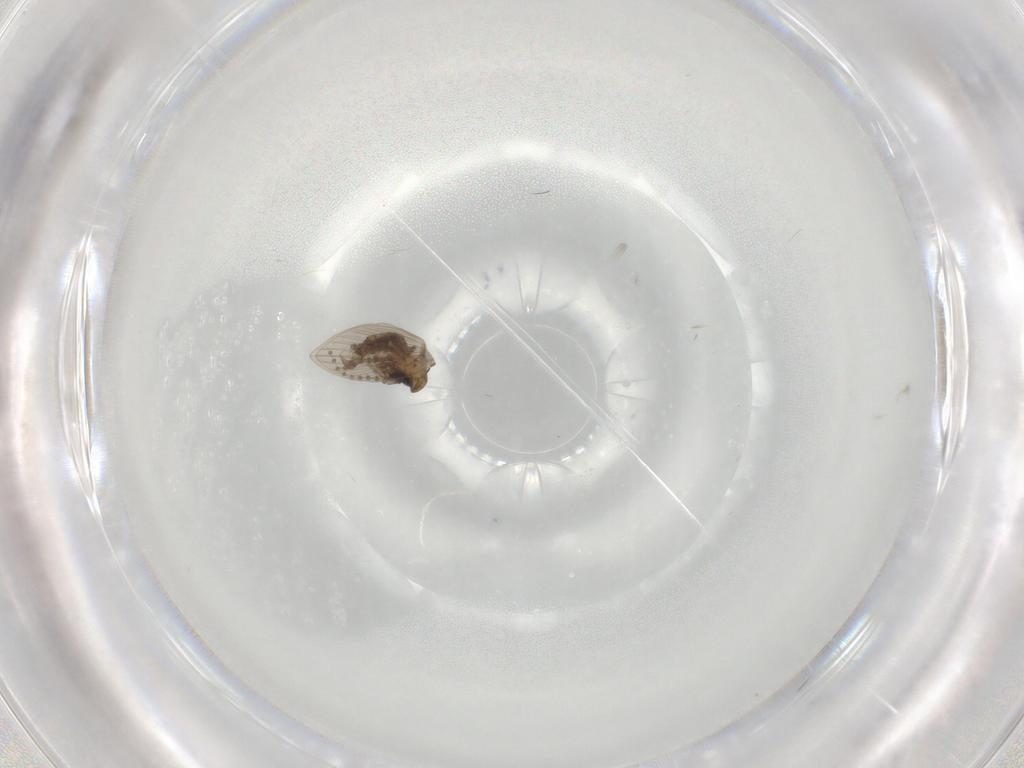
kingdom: Animalia
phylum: Arthropoda
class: Insecta
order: Diptera
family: Psychodidae
